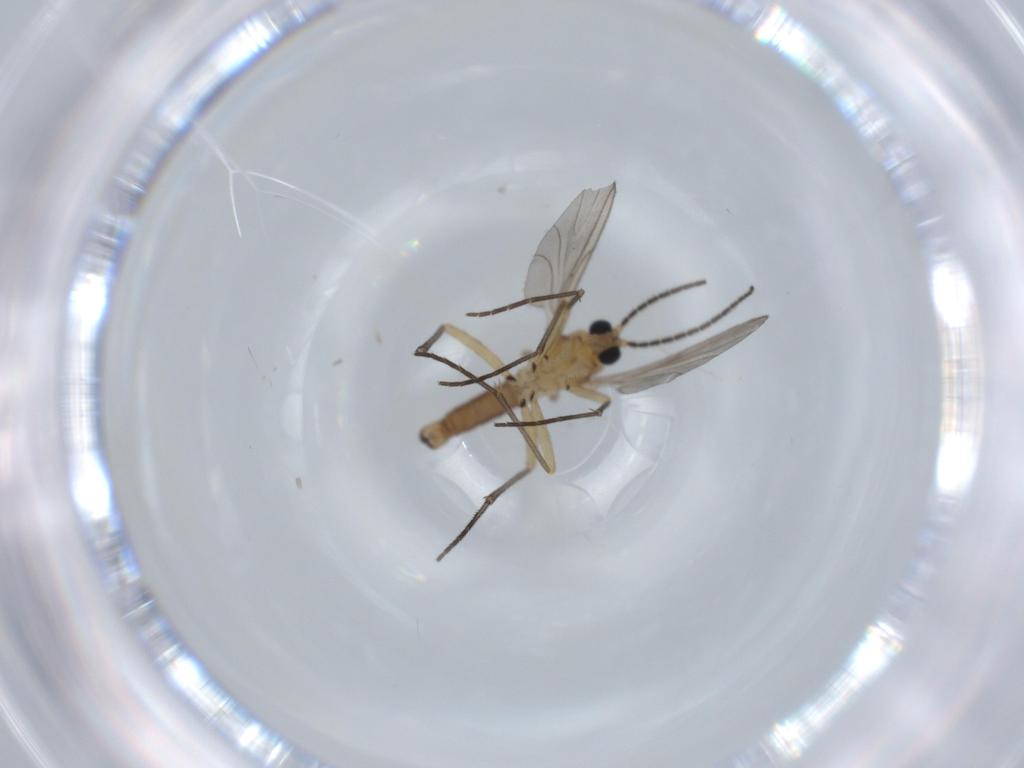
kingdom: Animalia
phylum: Arthropoda
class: Insecta
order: Diptera
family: Sciaridae
